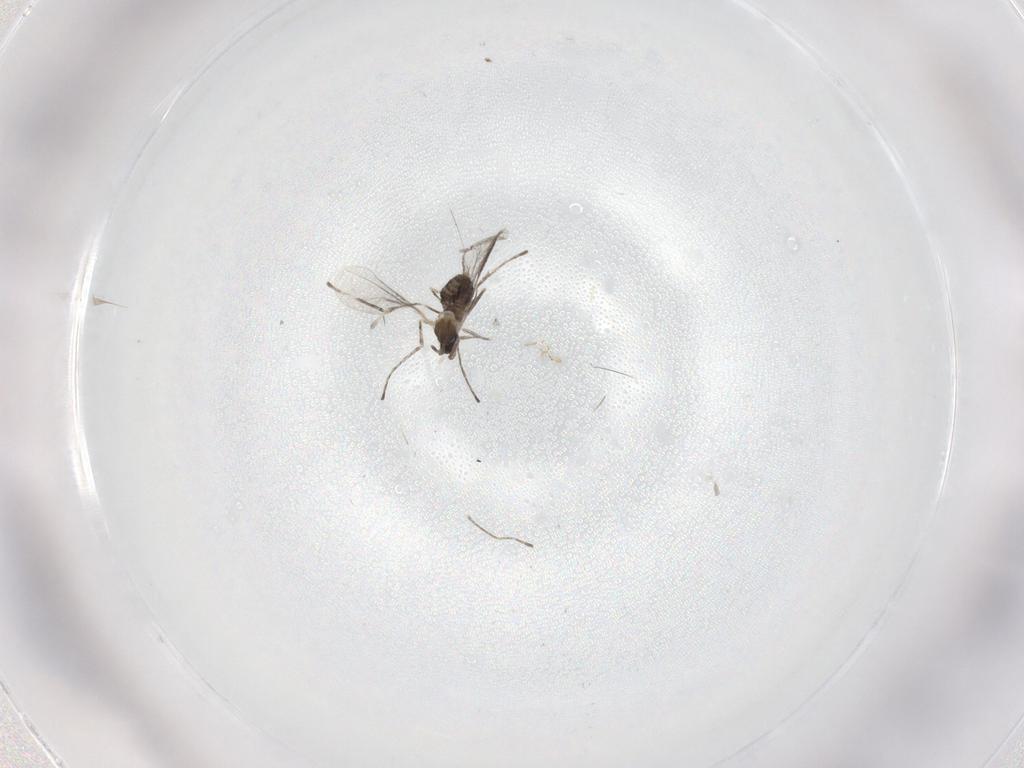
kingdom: Animalia
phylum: Arthropoda
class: Insecta
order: Diptera
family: Cecidomyiidae
